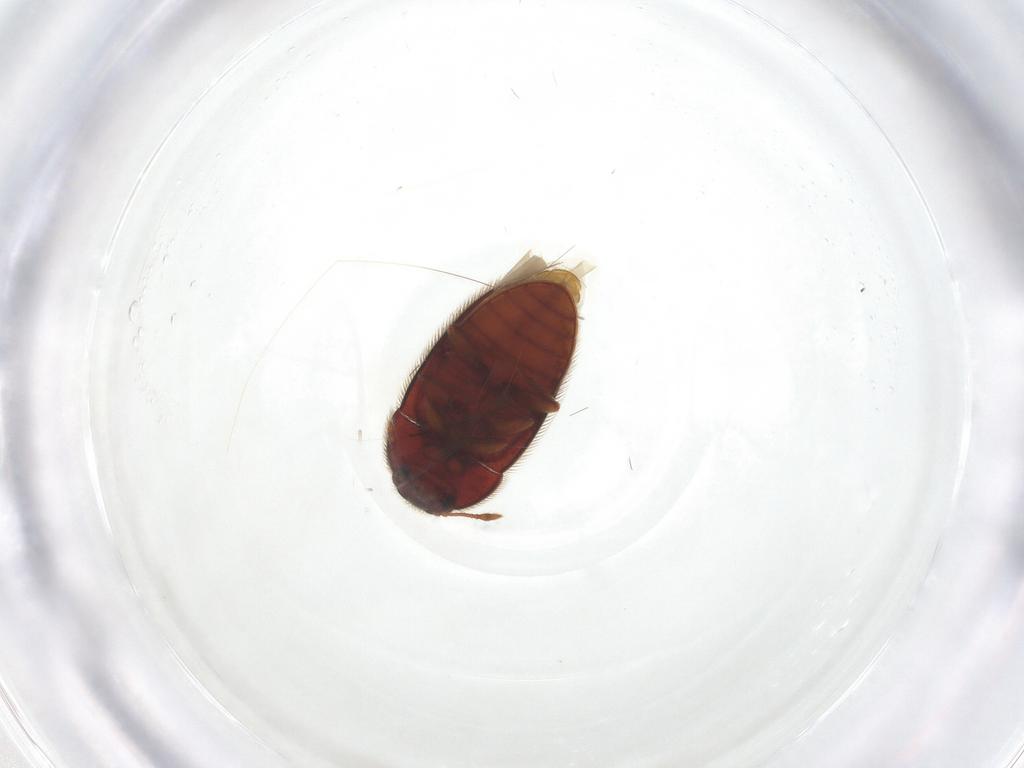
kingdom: Animalia
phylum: Arthropoda
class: Insecta
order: Coleoptera
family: Biphyllidae
